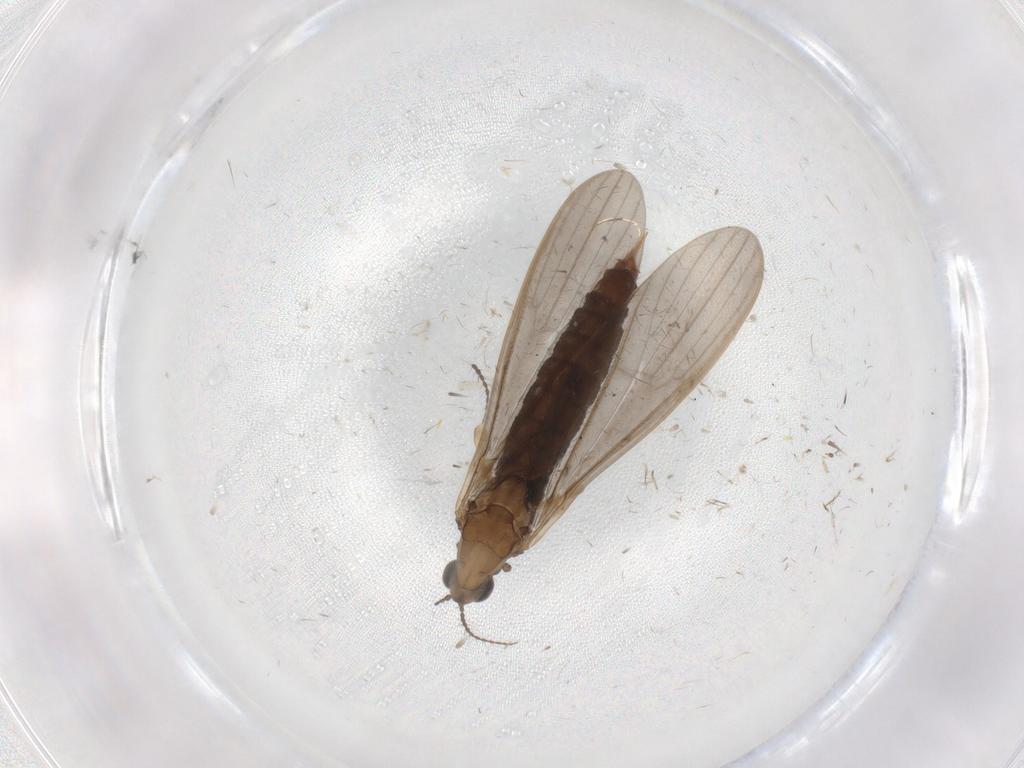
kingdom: Animalia
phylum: Arthropoda
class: Insecta
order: Diptera
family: Limoniidae
